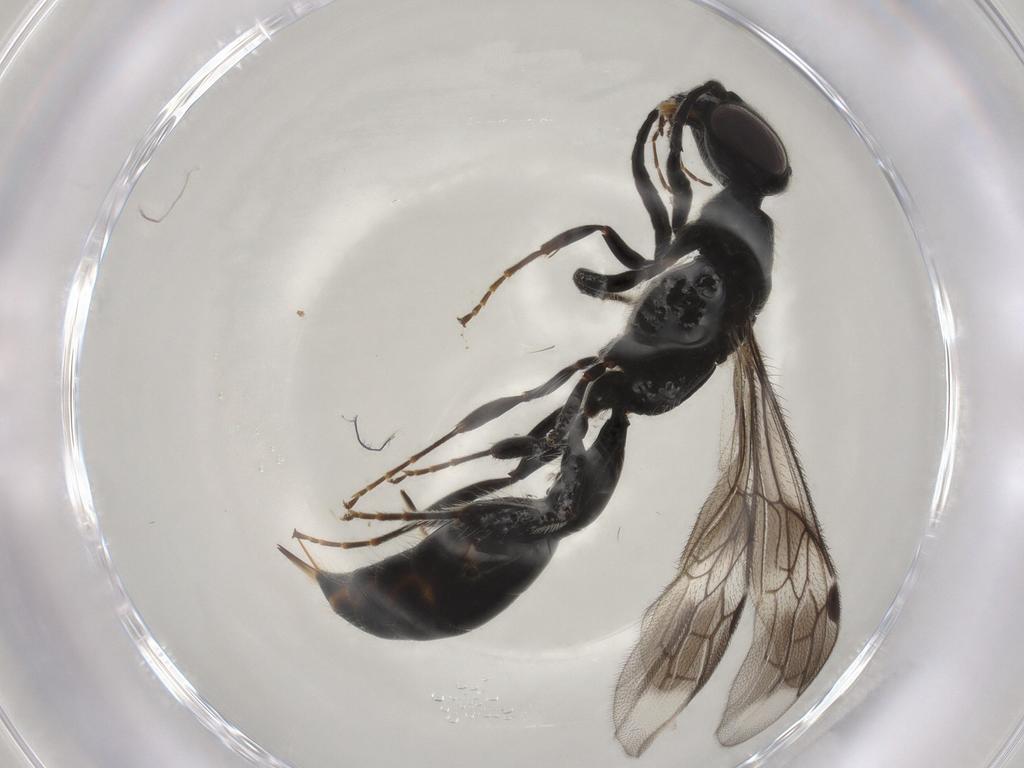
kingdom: Animalia
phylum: Arthropoda
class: Insecta
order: Hymenoptera
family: Thynnidae
